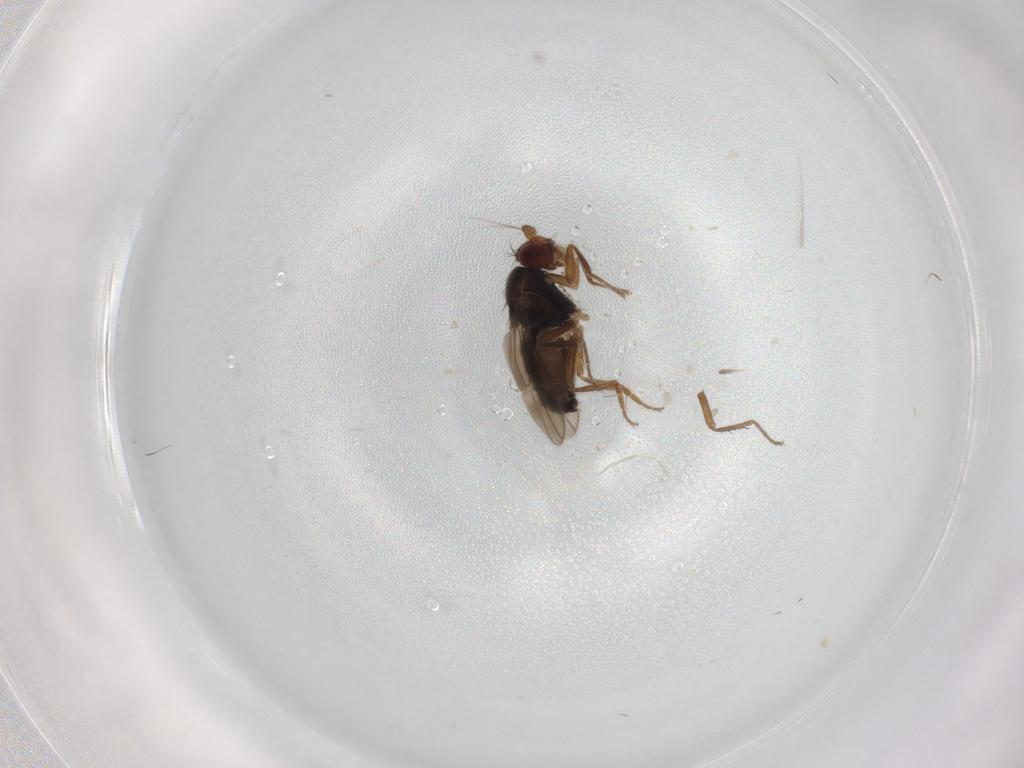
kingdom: Animalia
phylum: Arthropoda
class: Insecta
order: Diptera
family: Sphaeroceridae
